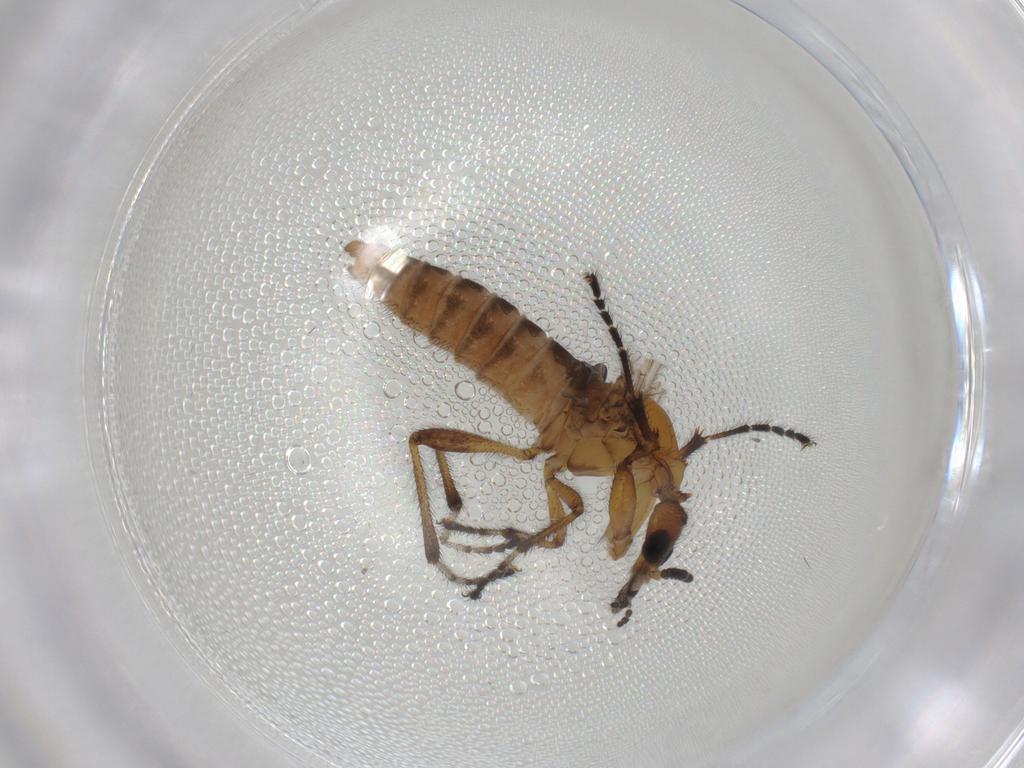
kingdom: Animalia
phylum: Arthropoda
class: Insecta
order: Diptera
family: Bibionidae
